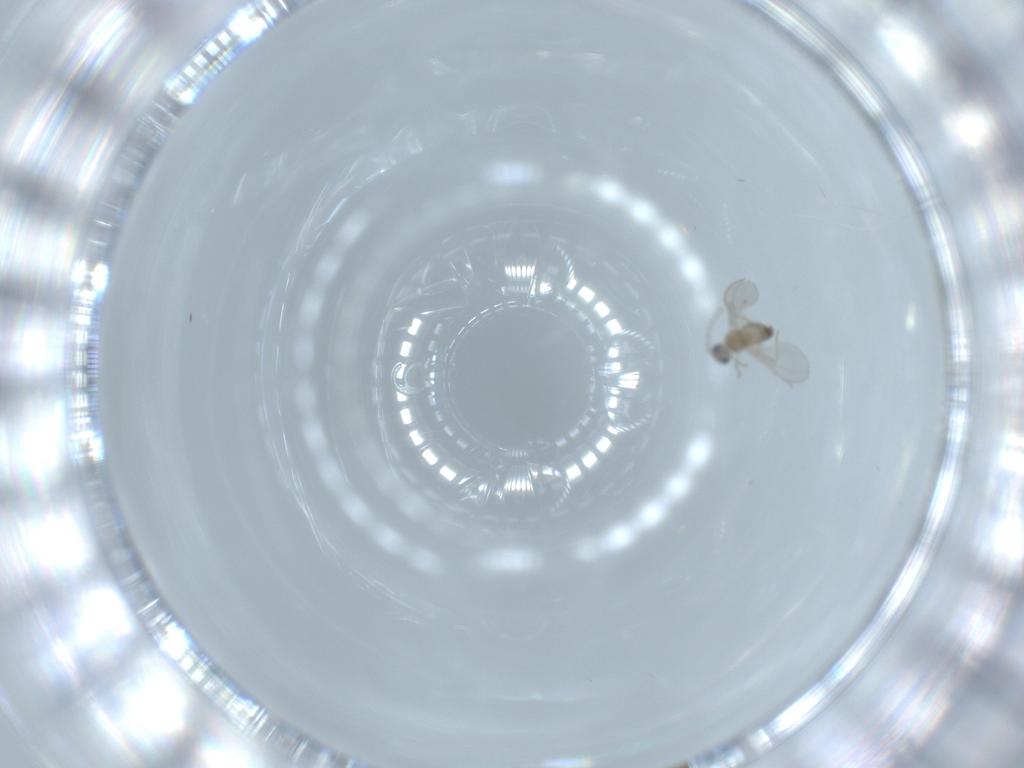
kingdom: Animalia
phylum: Arthropoda
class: Insecta
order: Diptera
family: Cecidomyiidae
